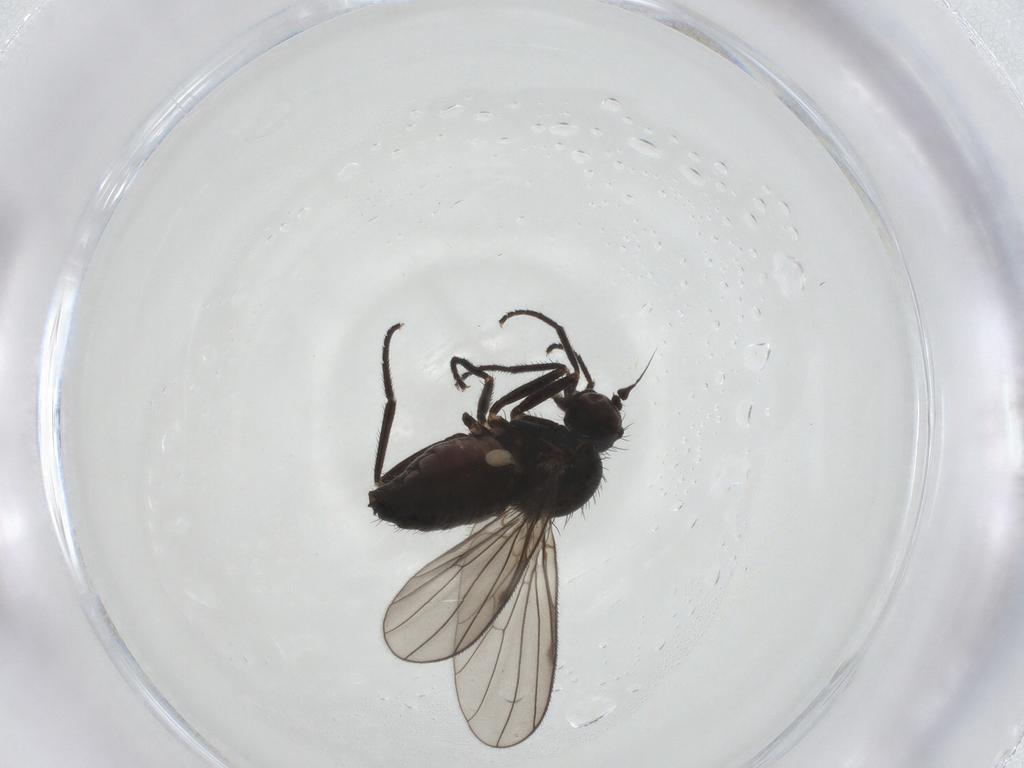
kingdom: Animalia
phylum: Arthropoda
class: Insecta
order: Diptera
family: Dolichopodidae
